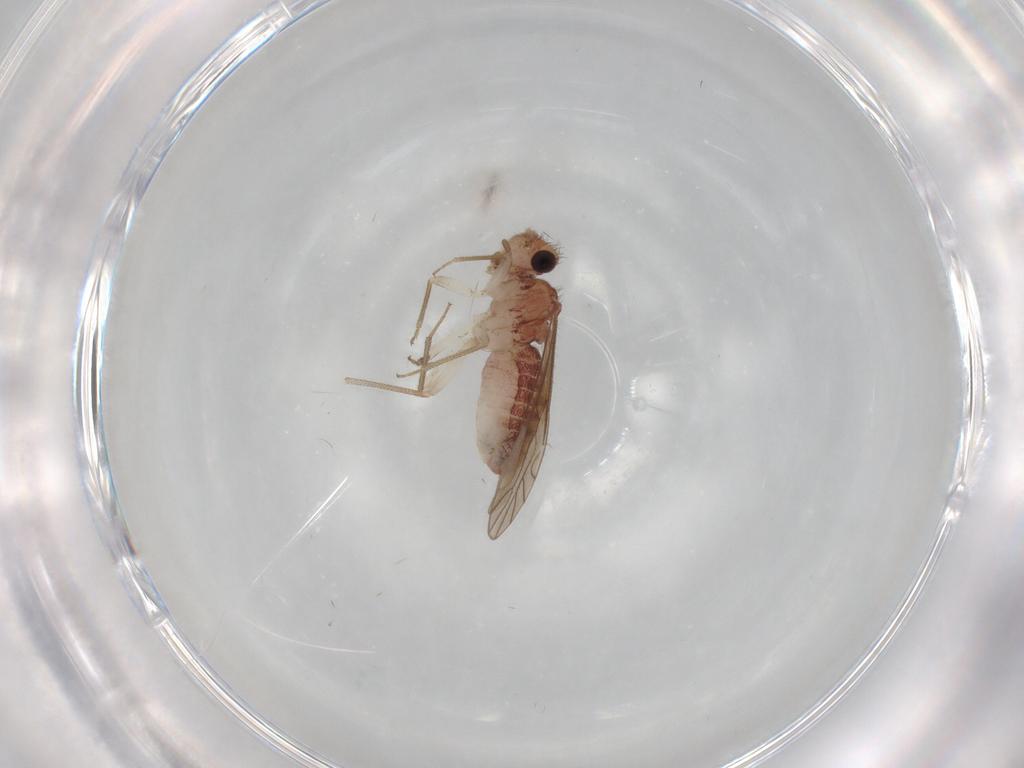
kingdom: Animalia
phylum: Arthropoda
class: Insecta
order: Psocodea
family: Caeciliusidae
